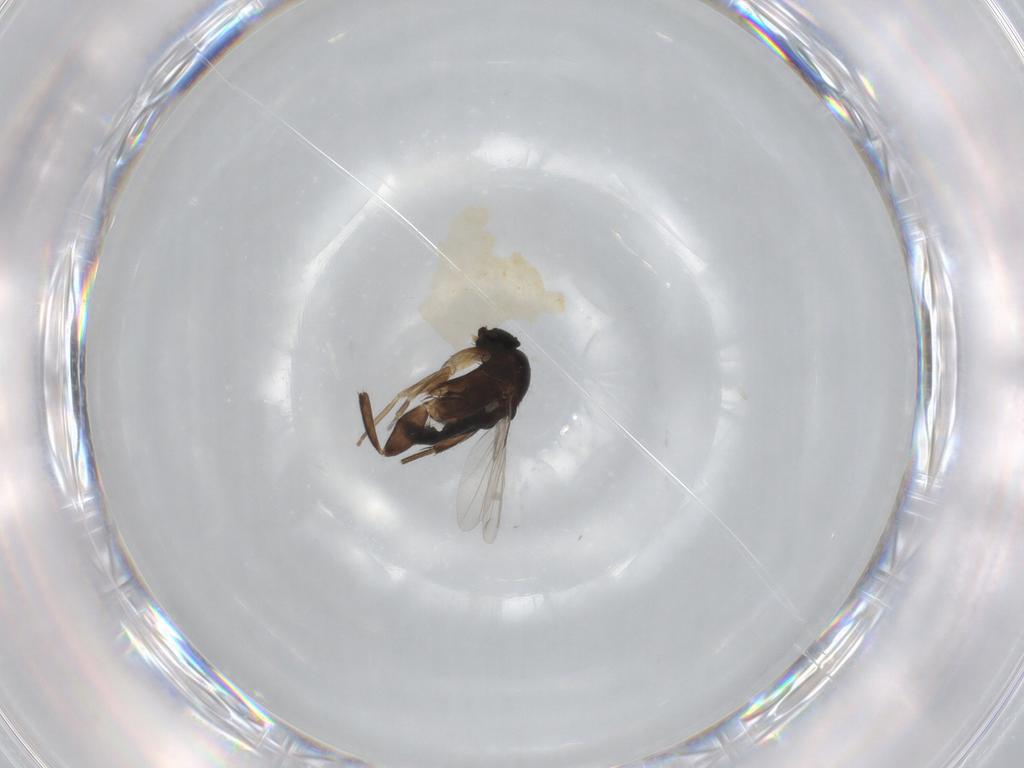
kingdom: Animalia
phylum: Arthropoda
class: Insecta
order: Diptera
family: Phoridae
